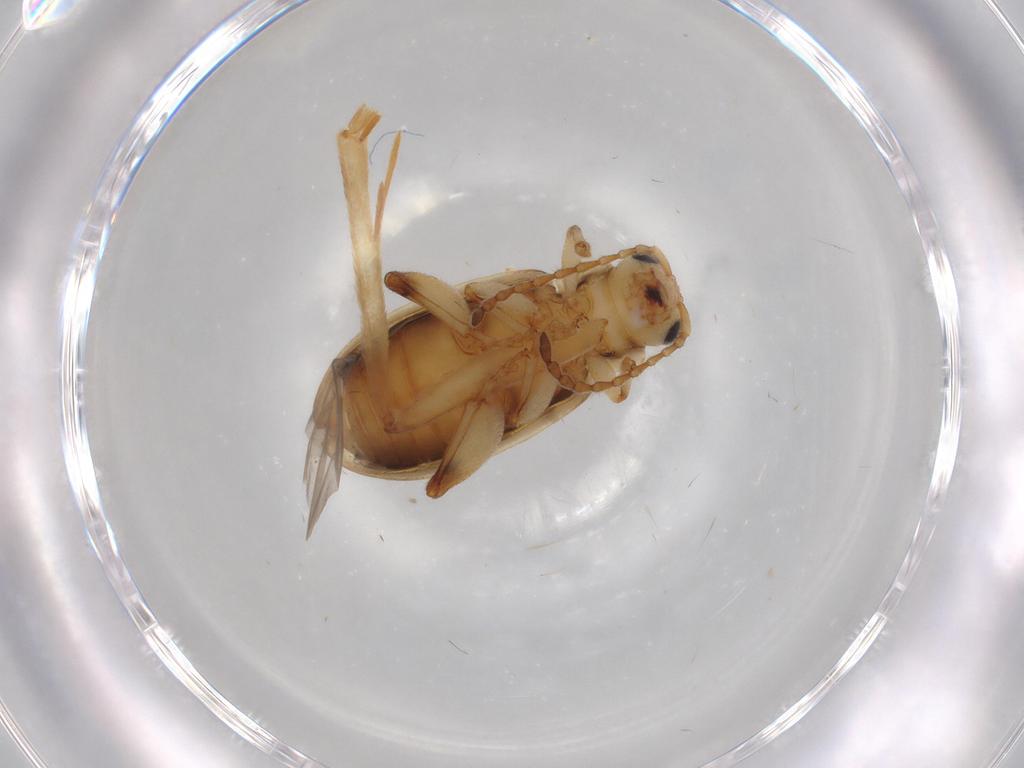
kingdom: Animalia
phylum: Arthropoda
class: Insecta
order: Coleoptera
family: Chrysomelidae
